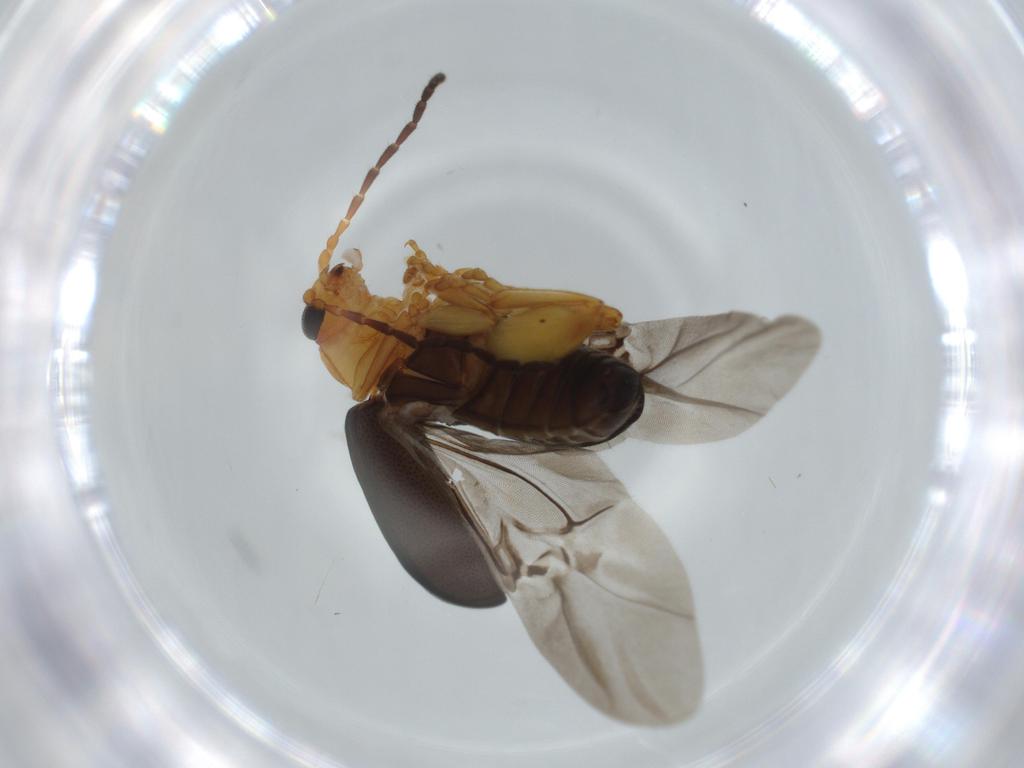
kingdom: Animalia
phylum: Arthropoda
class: Insecta
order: Coleoptera
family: Chrysomelidae
